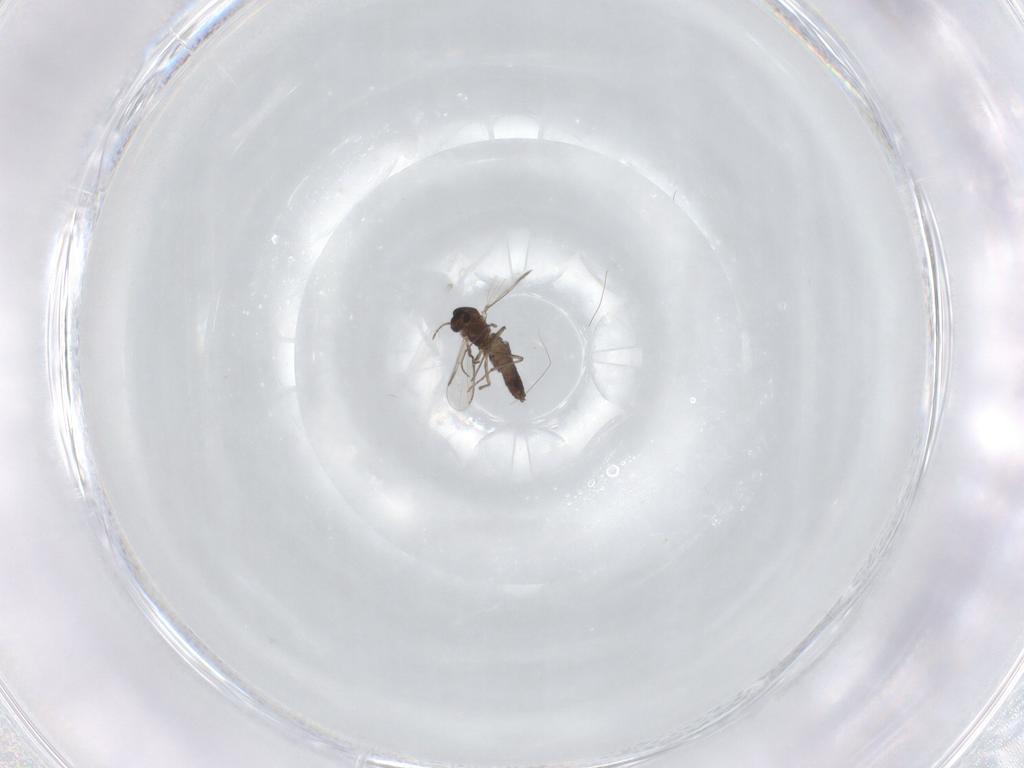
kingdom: Animalia
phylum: Arthropoda
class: Insecta
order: Diptera
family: Chironomidae
